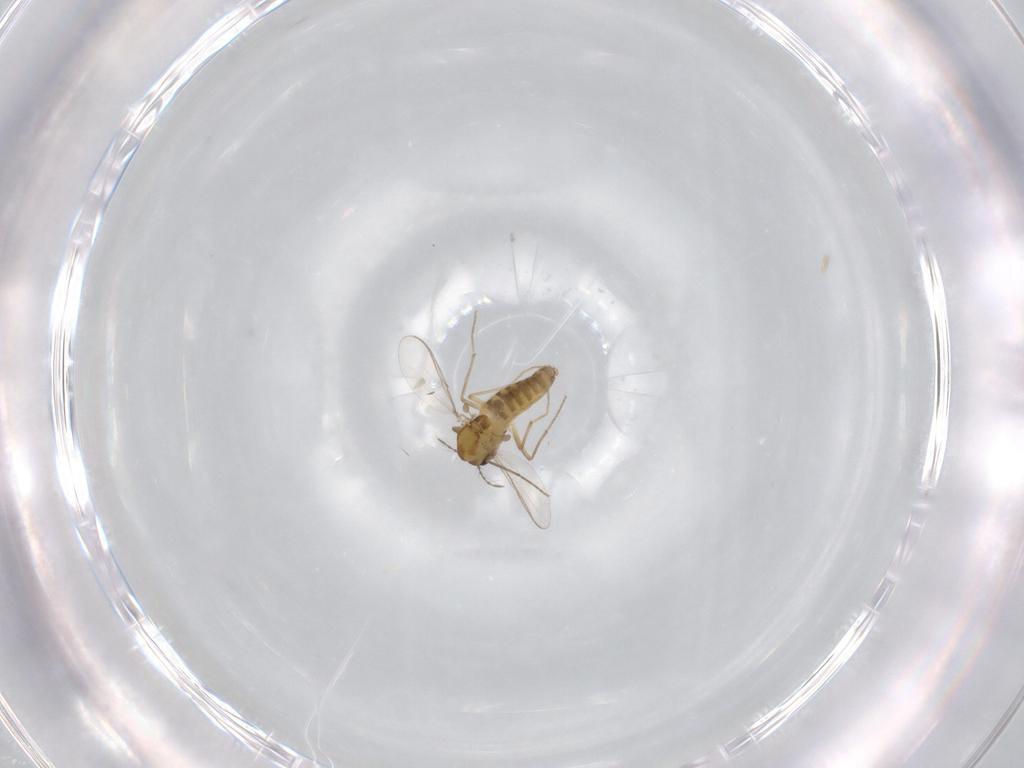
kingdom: Animalia
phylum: Arthropoda
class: Insecta
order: Diptera
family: Ceratopogonidae
